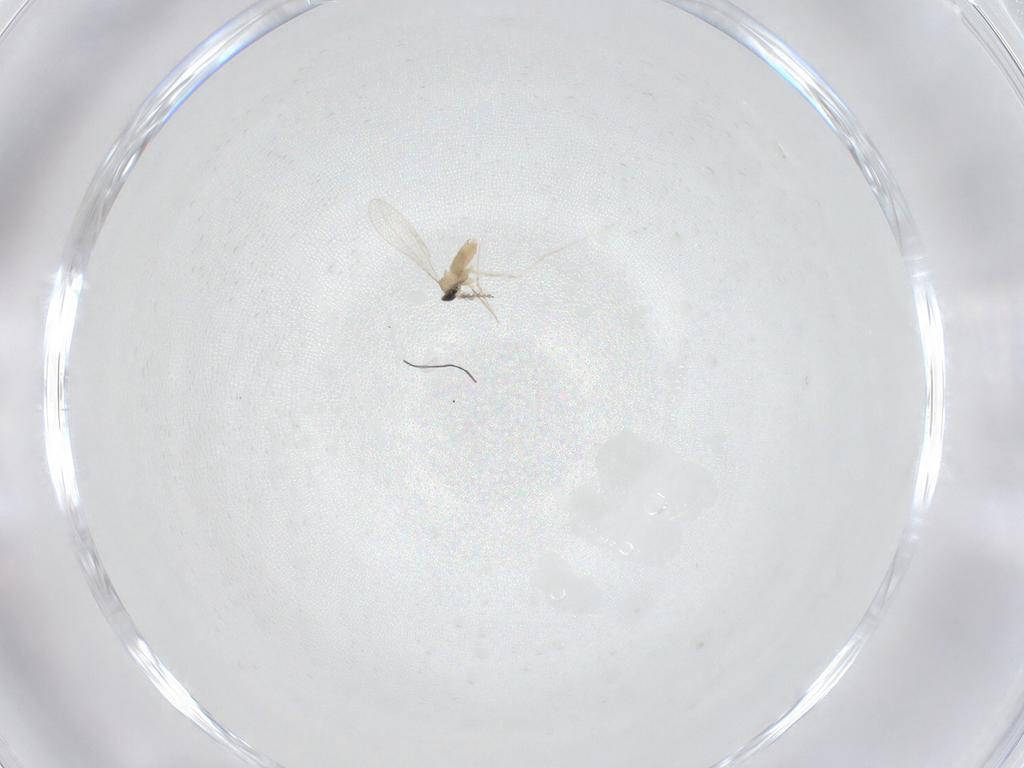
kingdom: Animalia
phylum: Arthropoda
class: Insecta
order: Diptera
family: Cecidomyiidae
